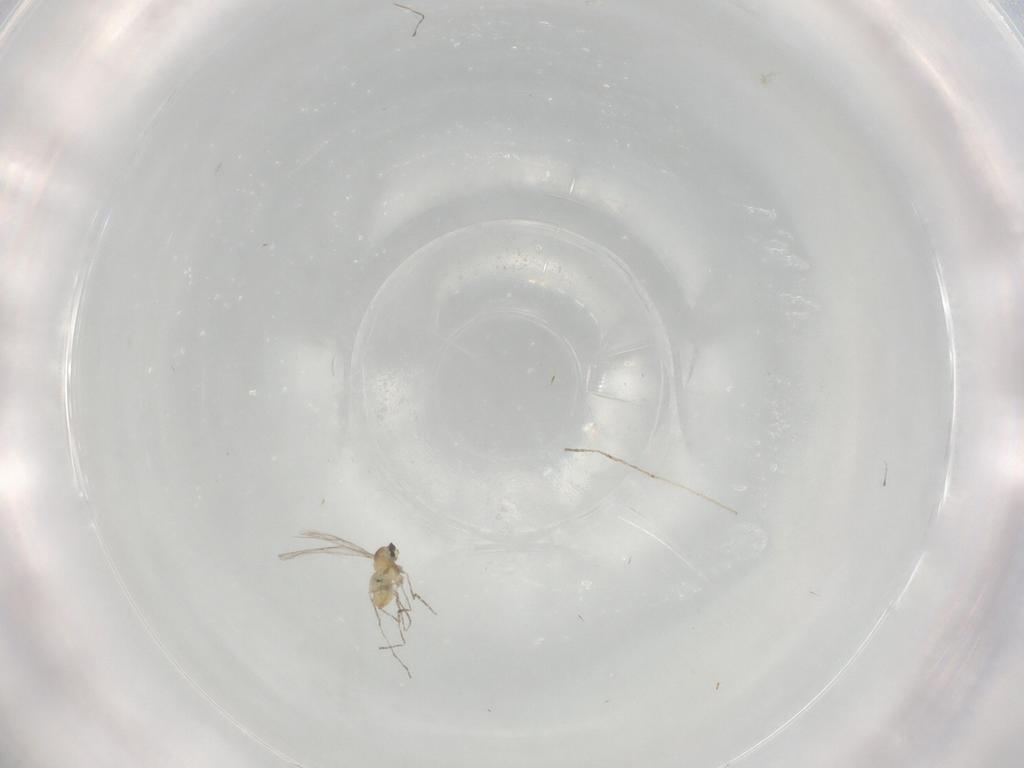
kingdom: Animalia
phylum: Arthropoda
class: Insecta
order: Diptera
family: Cecidomyiidae
